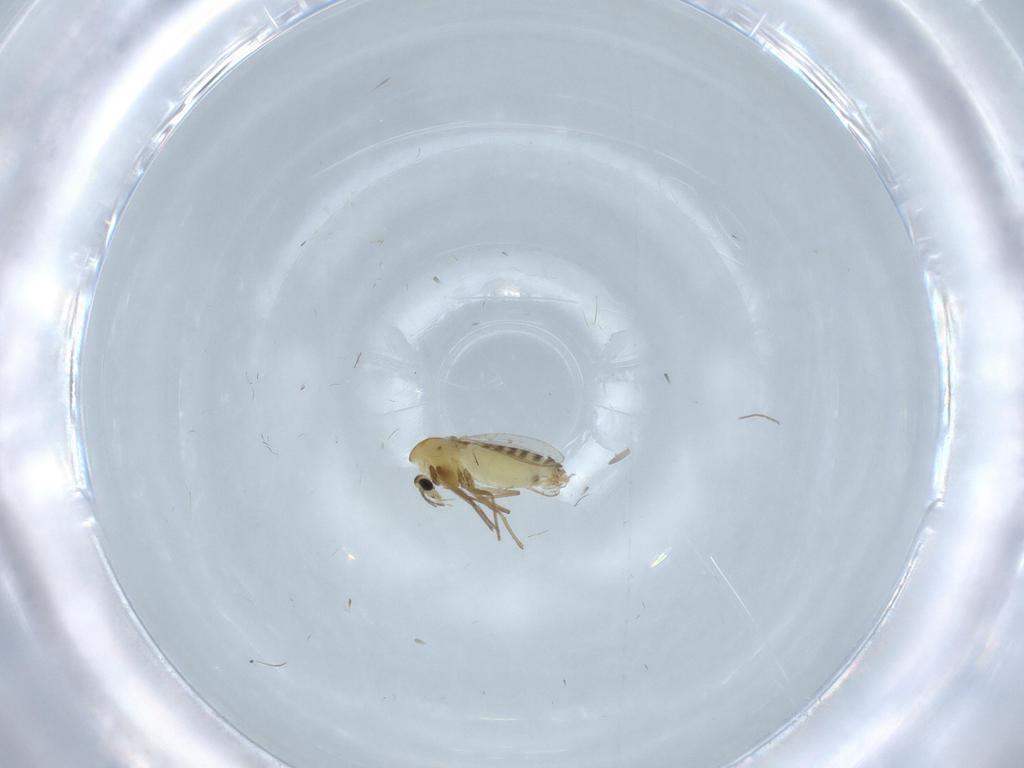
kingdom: Animalia
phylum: Arthropoda
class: Insecta
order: Diptera
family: Chironomidae
